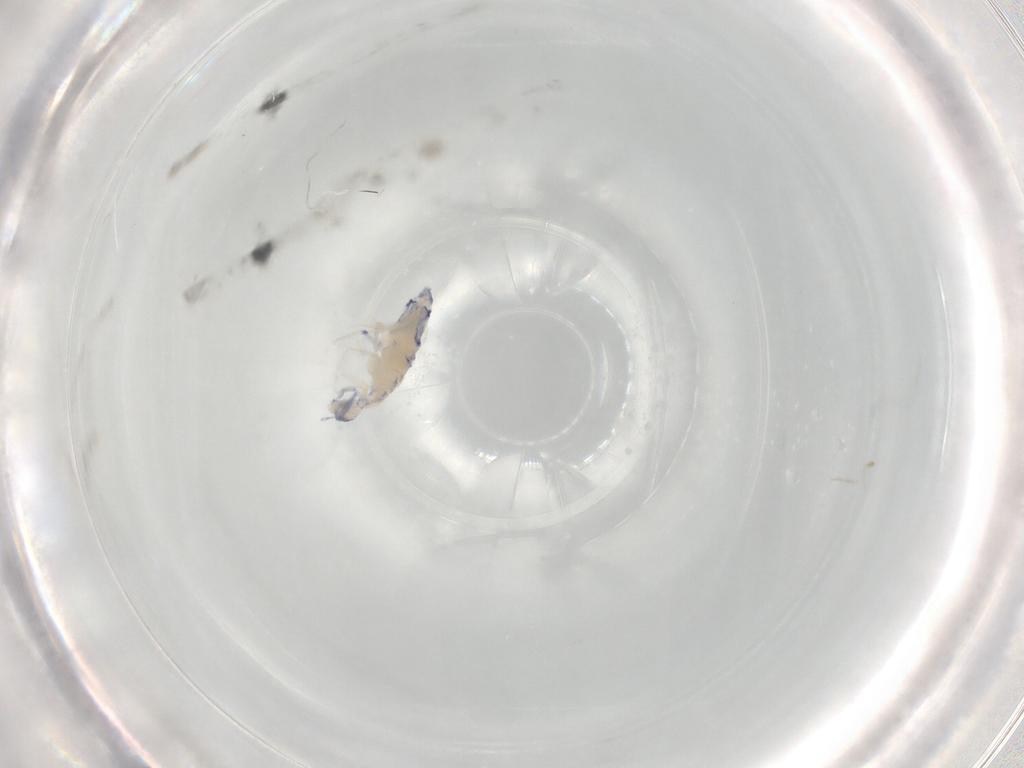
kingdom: Animalia
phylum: Arthropoda
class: Collembola
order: Entomobryomorpha
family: Entomobryidae
